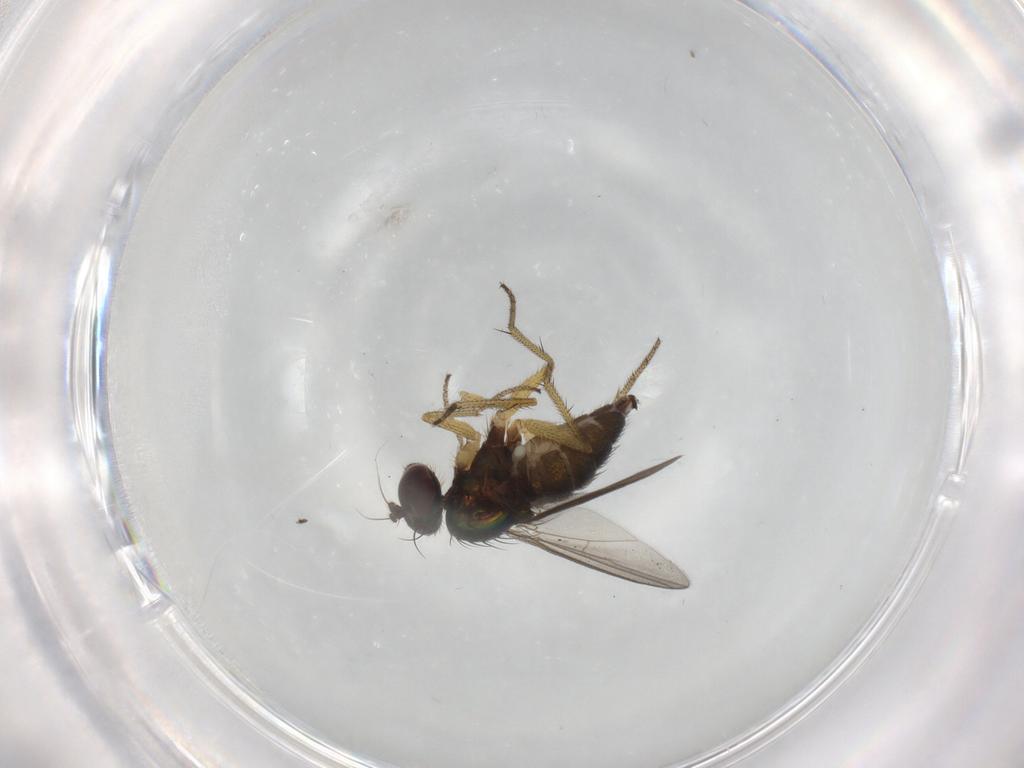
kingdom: Animalia
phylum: Arthropoda
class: Insecta
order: Diptera
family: Dolichopodidae
